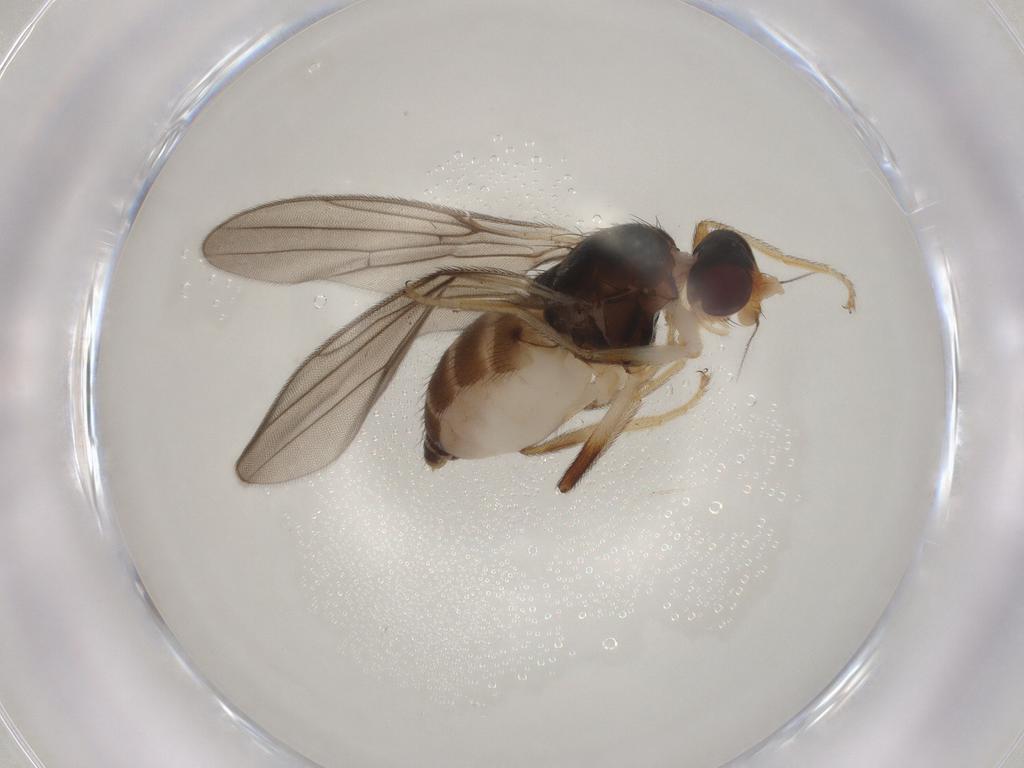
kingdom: Animalia
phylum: Arthropoda
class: Insecta
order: Diptera
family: Chloropidae
